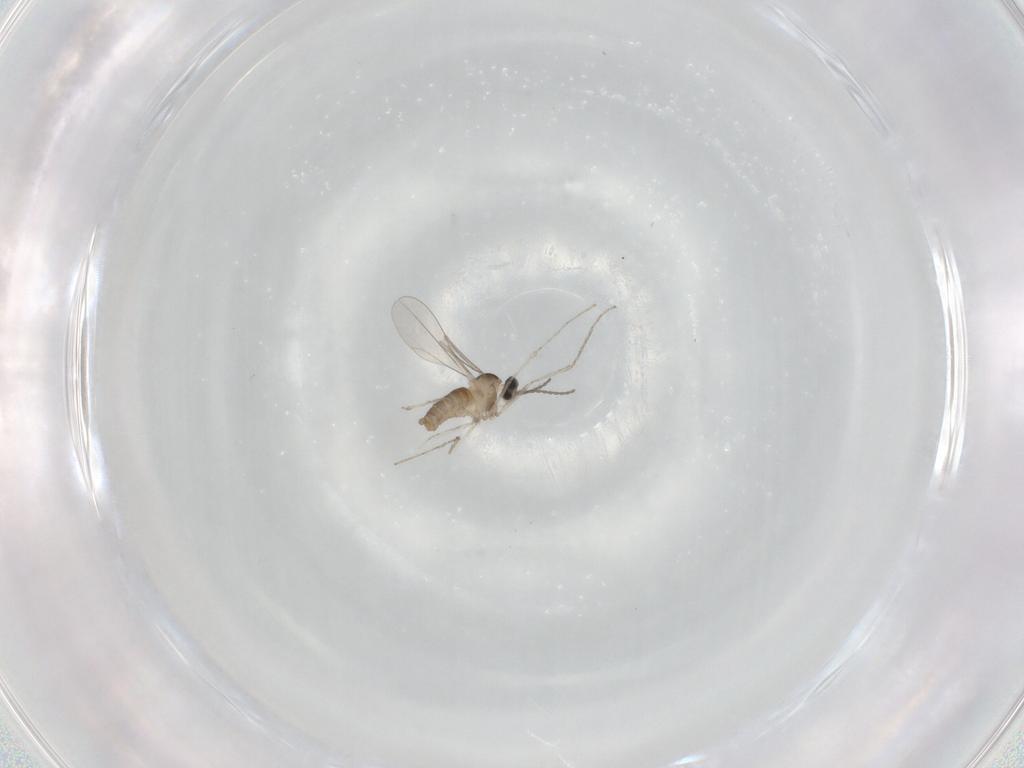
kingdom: Animalia
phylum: Arthropoda
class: Insecta
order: Diptera
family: Cecidomyiidae
